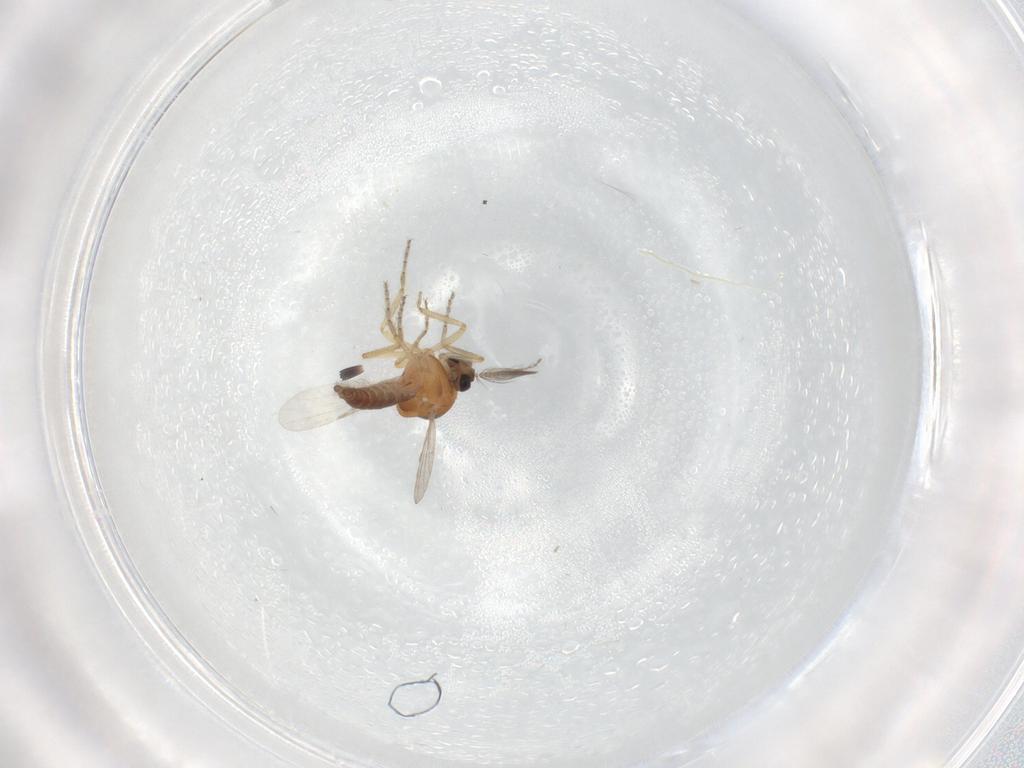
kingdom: Animalia
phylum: Arthropoda
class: Insecta
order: Diptera
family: Ceratopogonidae
